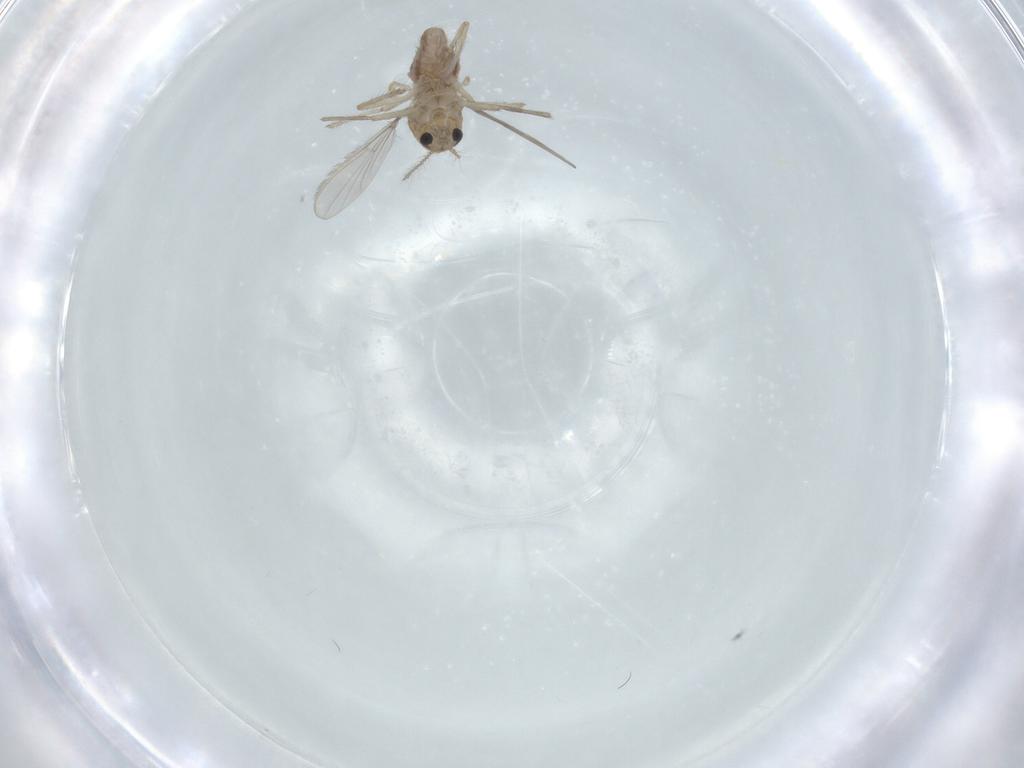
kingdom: Animalia
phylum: Arthropoda
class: Insecta
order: Diptera
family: Chironomidae
